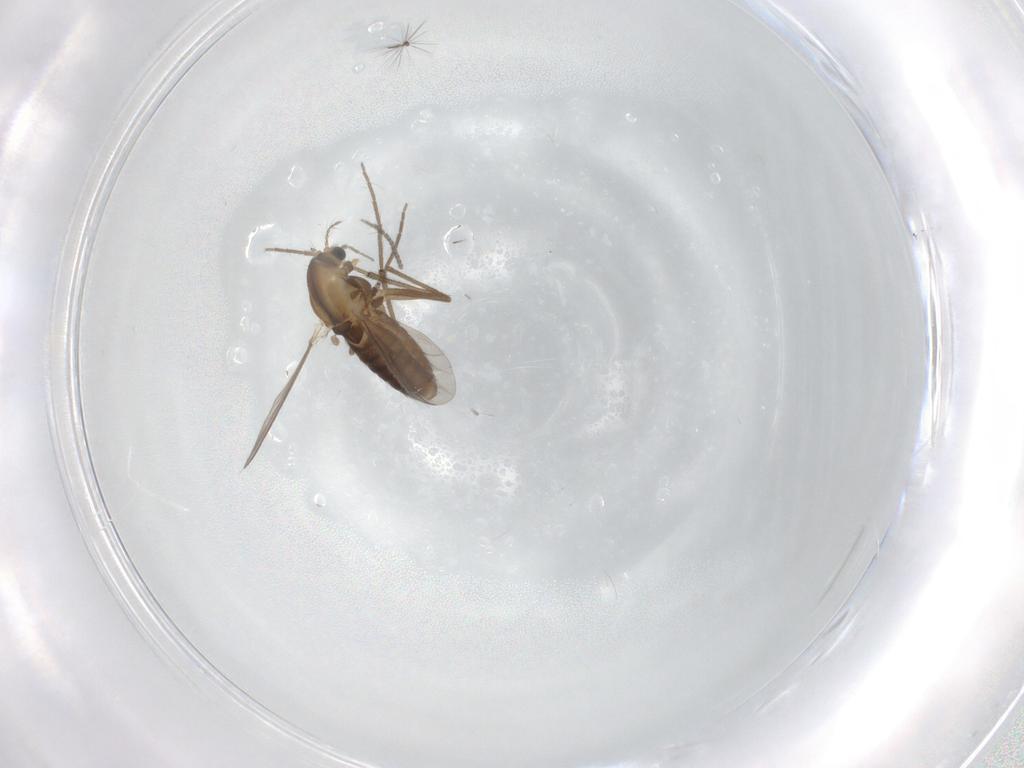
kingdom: Animalia
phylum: Arthropoda
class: Insecta
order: Diptera
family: Chironomidae
